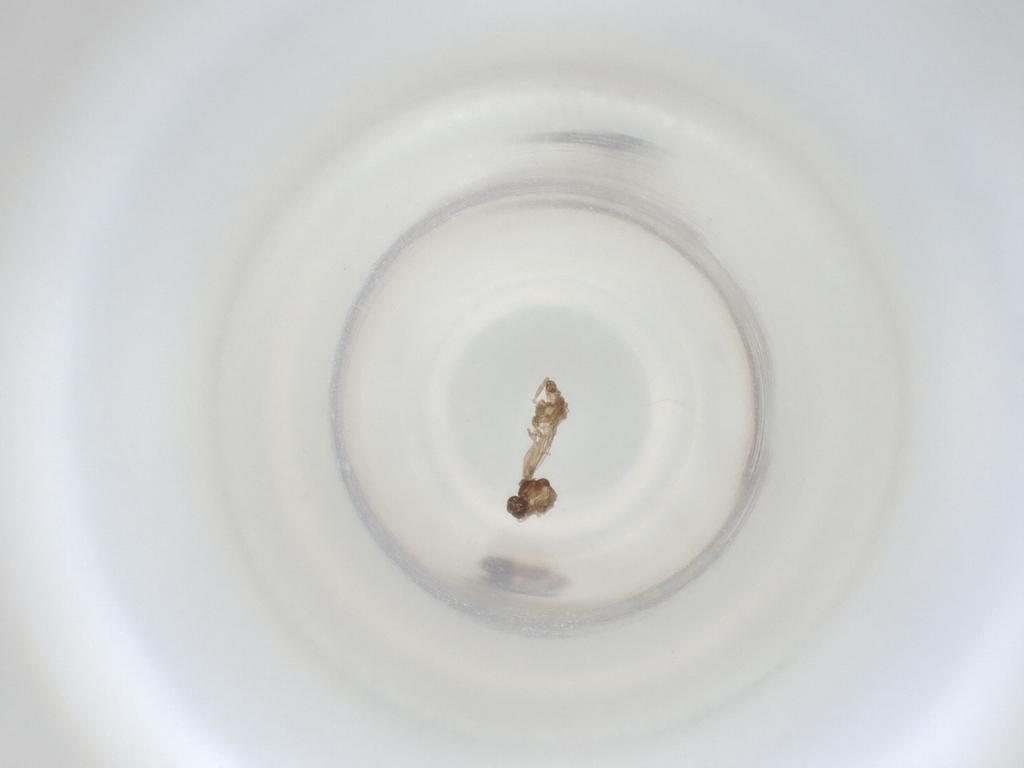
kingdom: Animalia
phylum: Arthropoda
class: Insecta
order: Diptera
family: Cecidomyiidae
